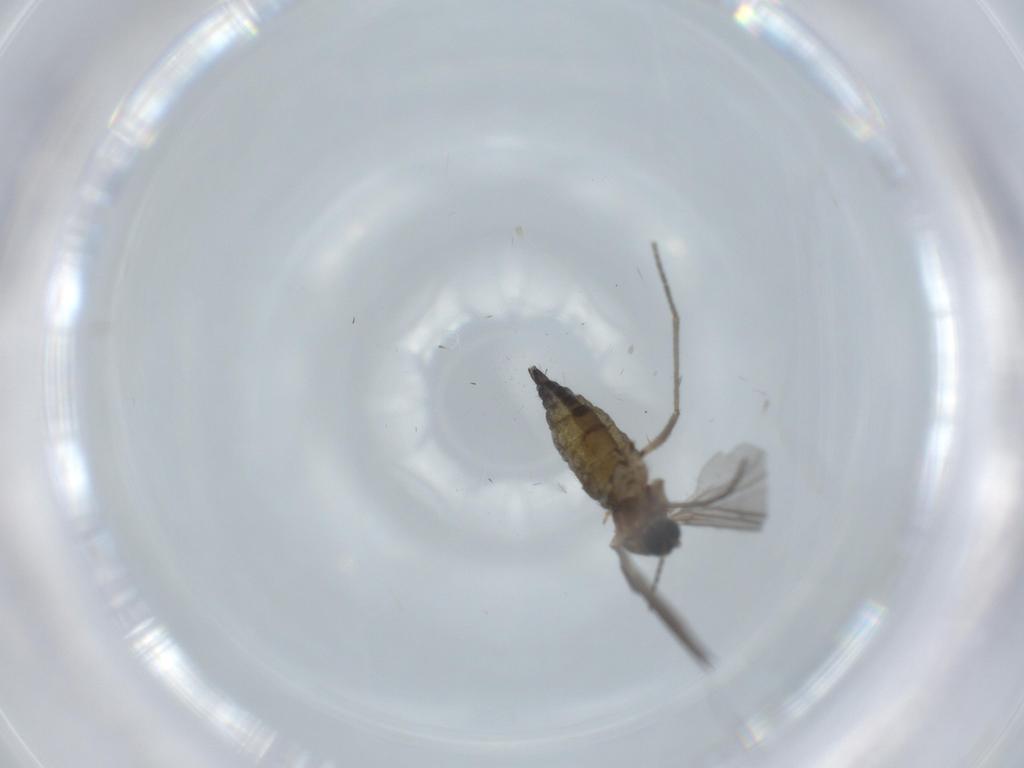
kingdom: Animalia
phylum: Arthropoda
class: Insecta
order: Diptera
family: Sciaridae
